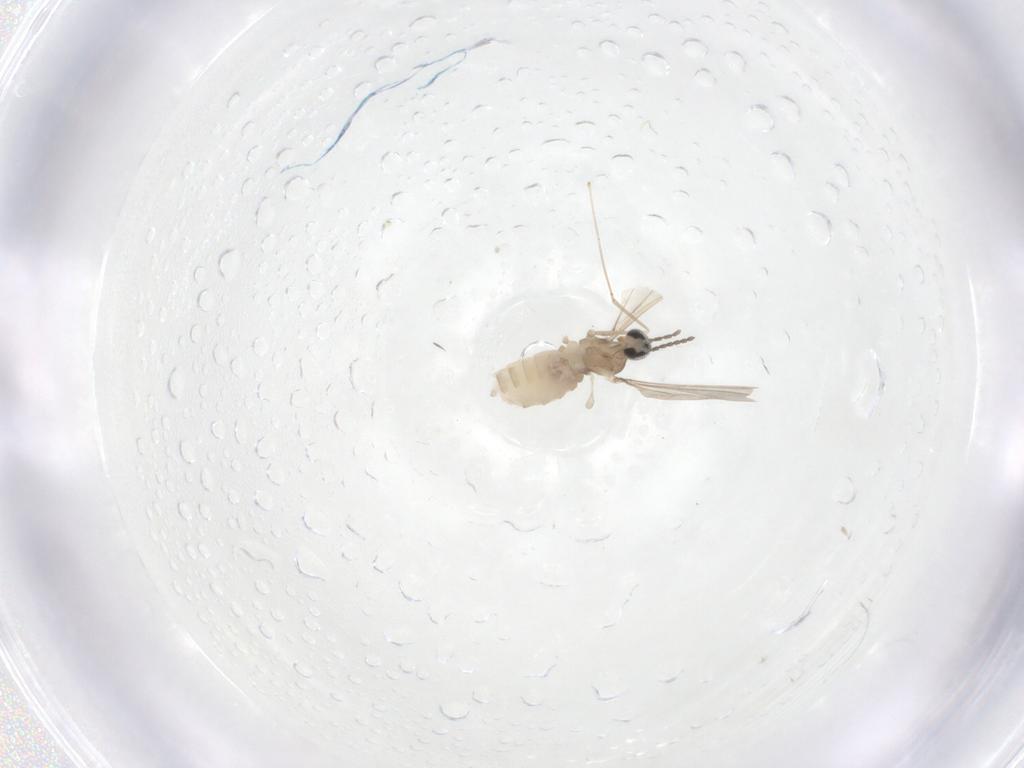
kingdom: Animalia
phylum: Arthropoda
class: Insecta
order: Diptera
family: Cecidomyiidae
